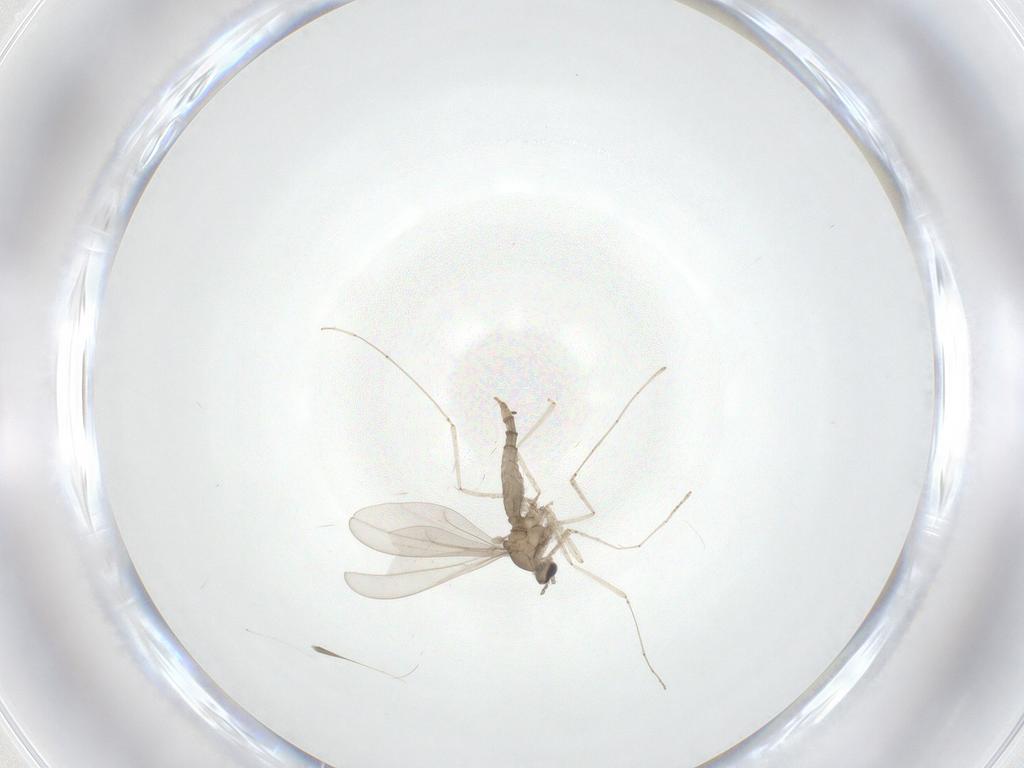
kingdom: Animalia
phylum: Arthropoda
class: Insecta
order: Diptera
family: Cecidomyiidae
